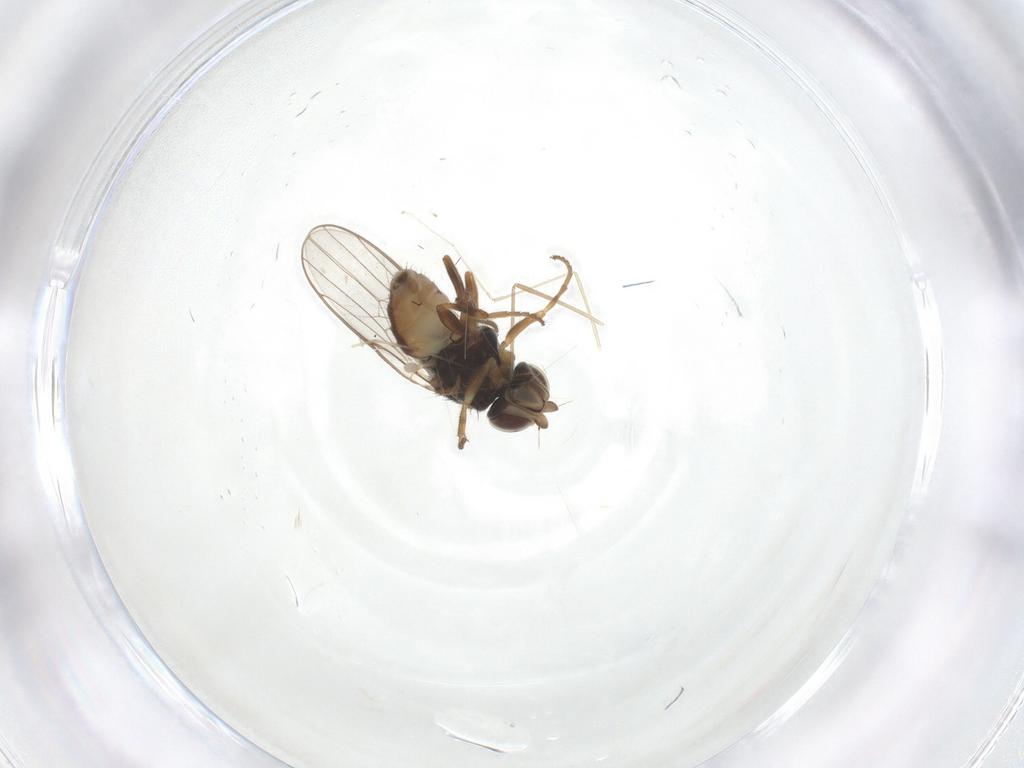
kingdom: Animalia
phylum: Arthropoda
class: Insecta
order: Diptera
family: Chloropidae
